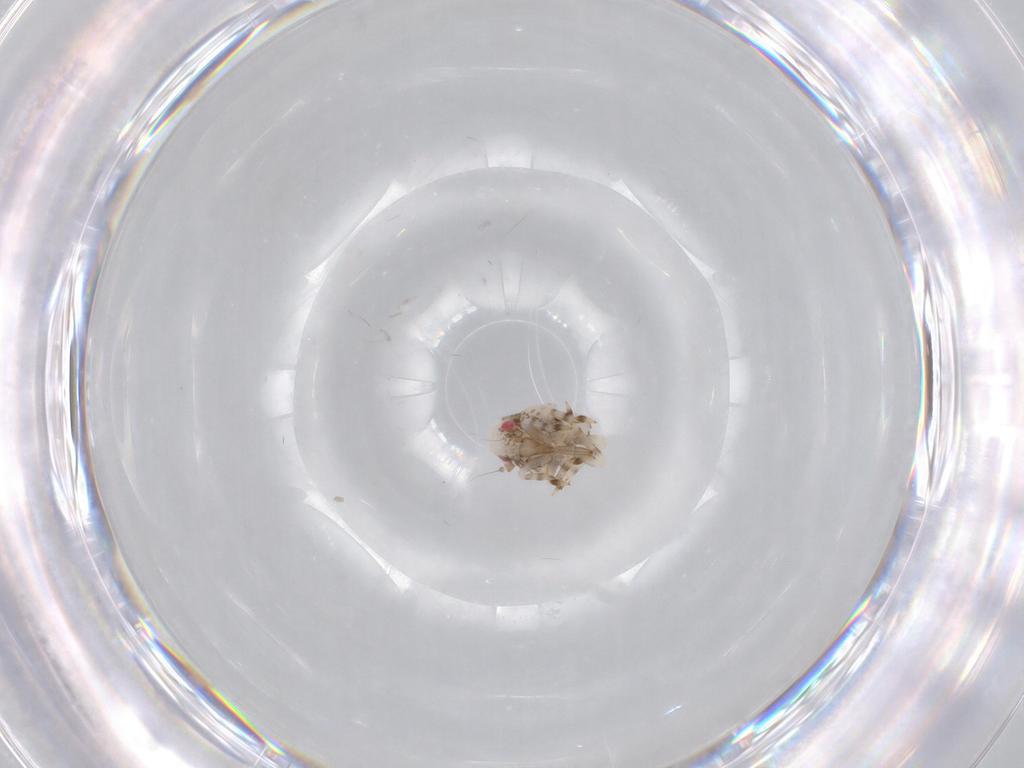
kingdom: Animalia
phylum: Arthropoda
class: Insecta
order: Hemiptera
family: Acanaloniidae
